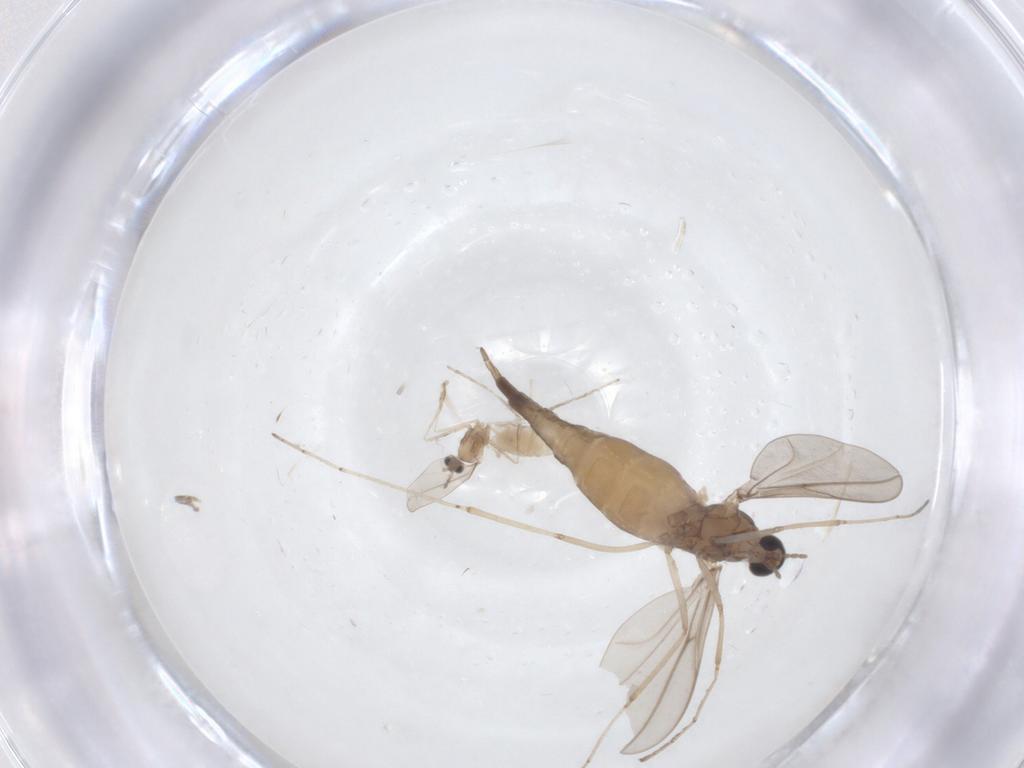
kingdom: Animalia
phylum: Arthropoda
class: Insecta
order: Diptera
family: Cecidomyiidae
